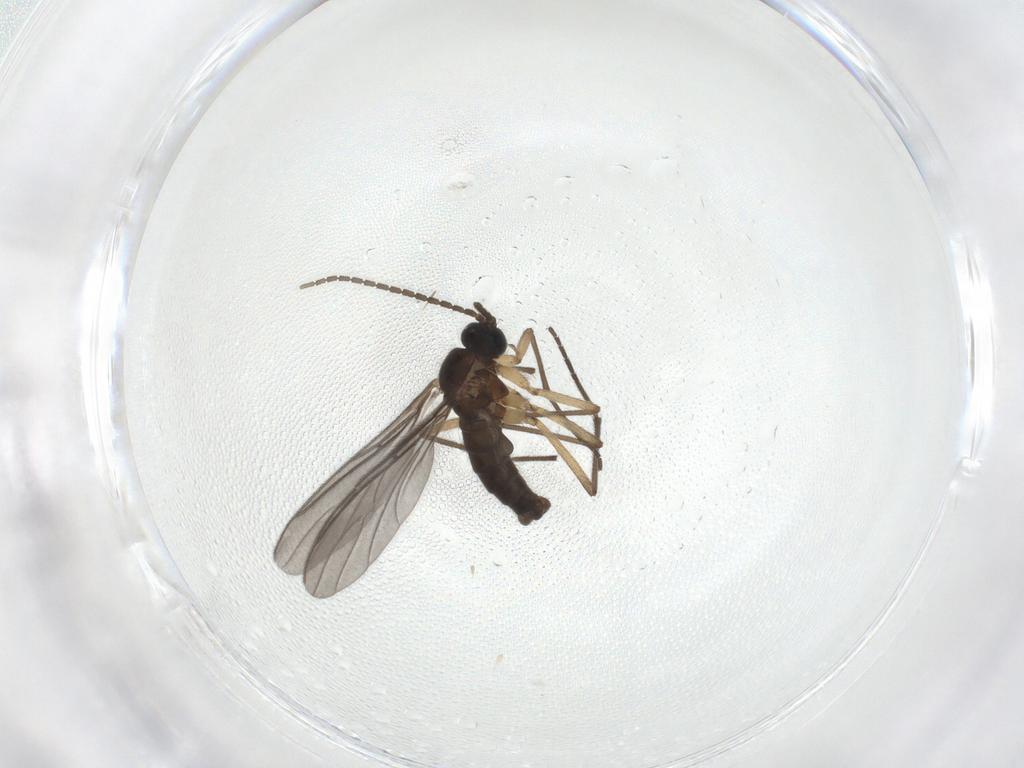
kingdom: Animalia
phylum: Arthropoda
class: Insecta
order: Diptera
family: Sciaridae
